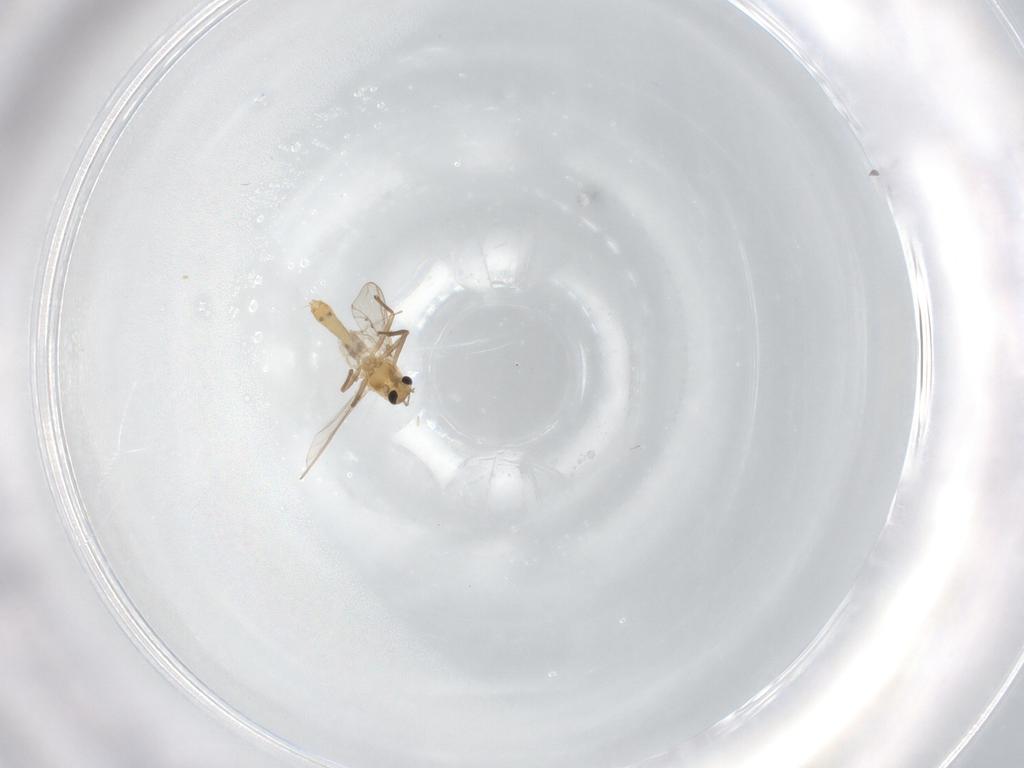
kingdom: Animalia
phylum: Arthropoda
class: Insecta
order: Diptera
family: Chironomidae
